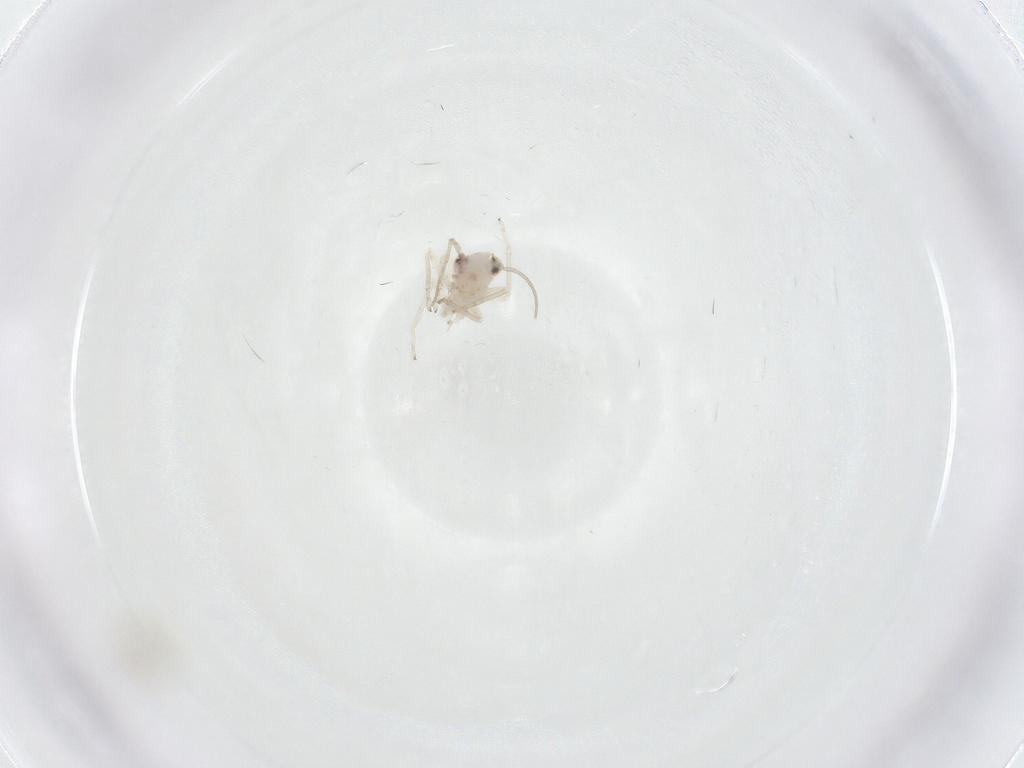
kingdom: Animalia
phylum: Arthropoda
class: Insecta
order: Psocodea
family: Caeciliusidae
